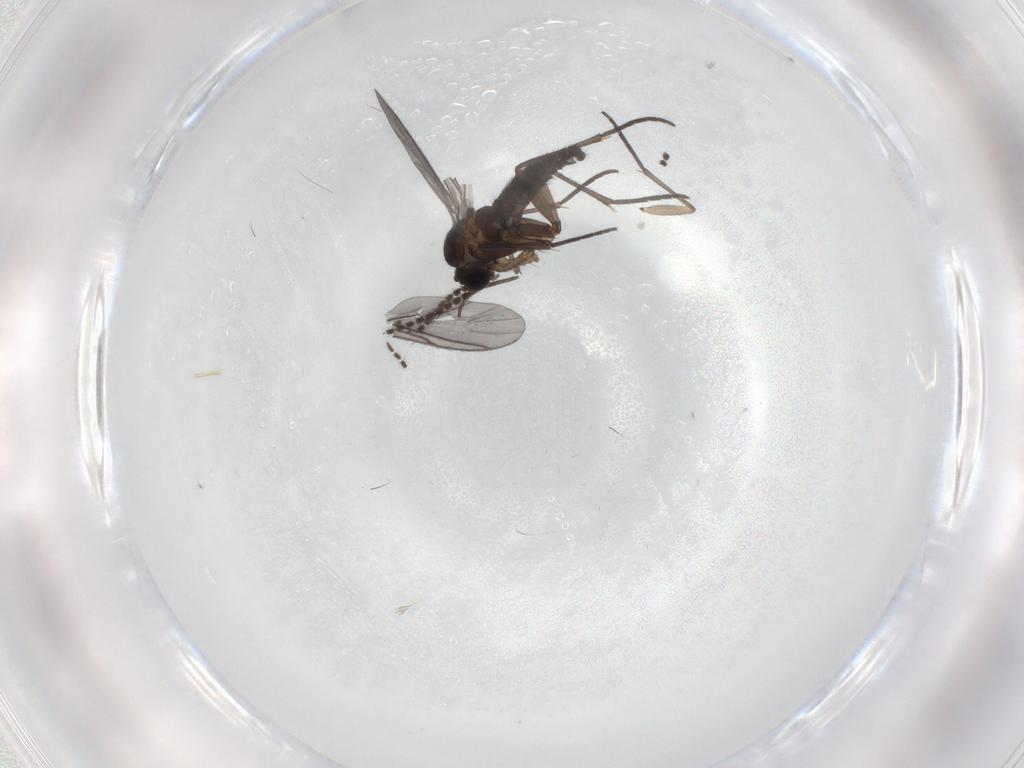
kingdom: Animalia
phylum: Arthropoda
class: Insecta
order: Diptera
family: Sciaridae
